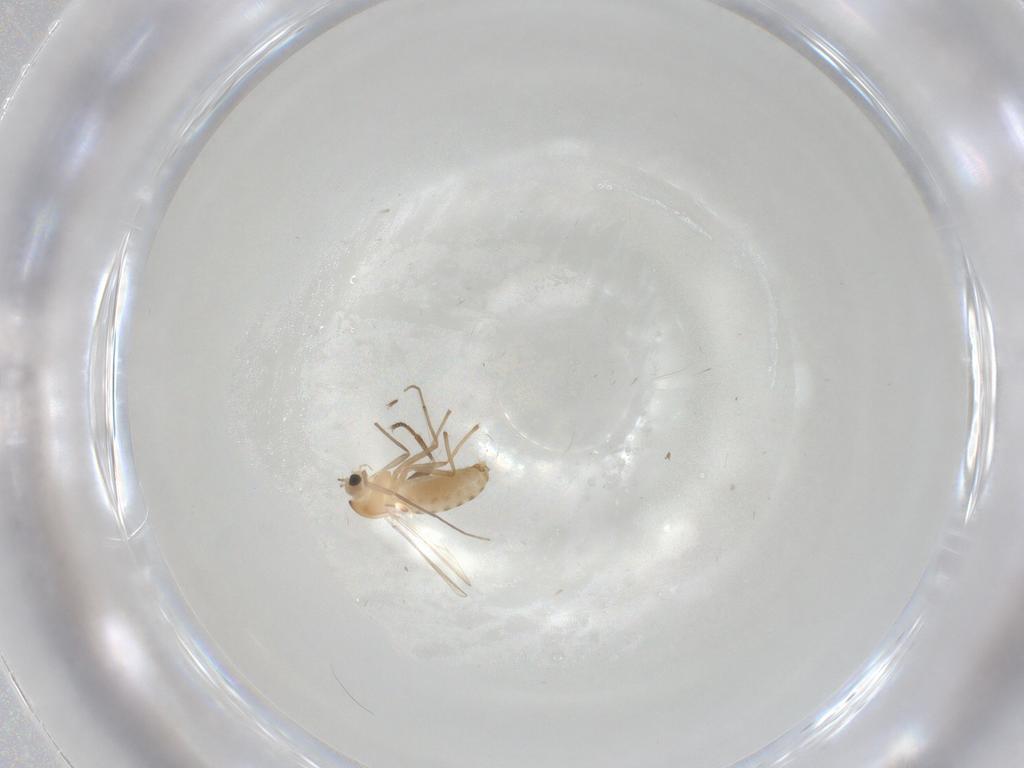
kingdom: Animalia
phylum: Arthropoda
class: Insecta
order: Diptera
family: Chironomidae
